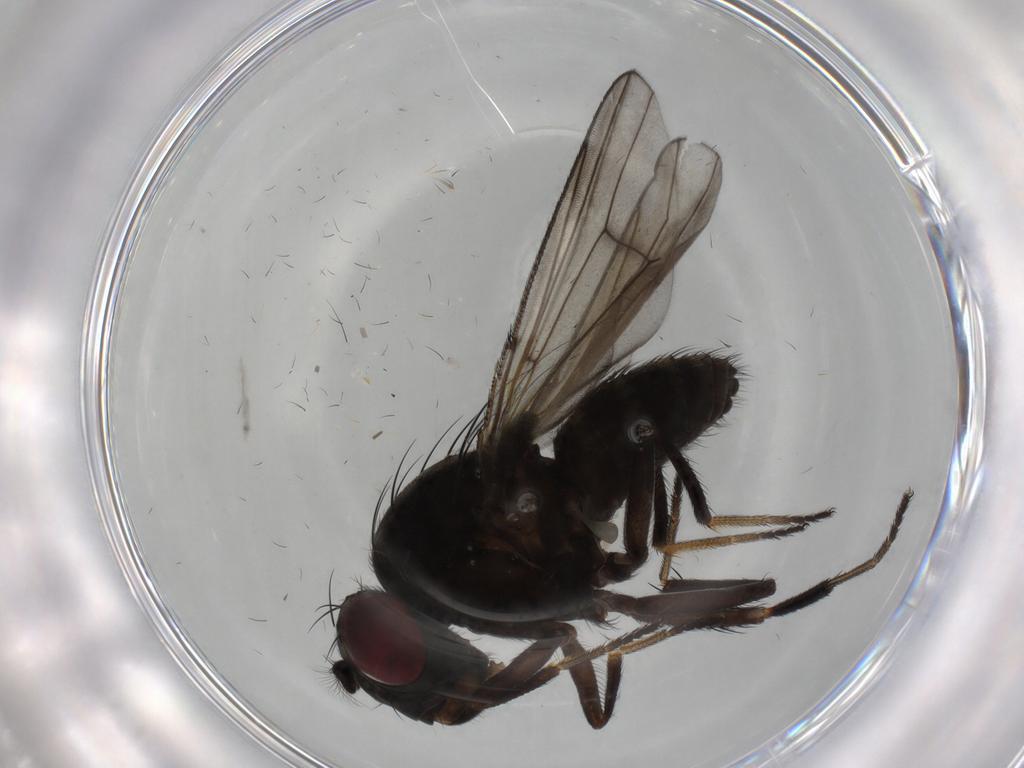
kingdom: Animalia
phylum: Arthropoda
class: Insecta
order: Diptera
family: Ephydridae
